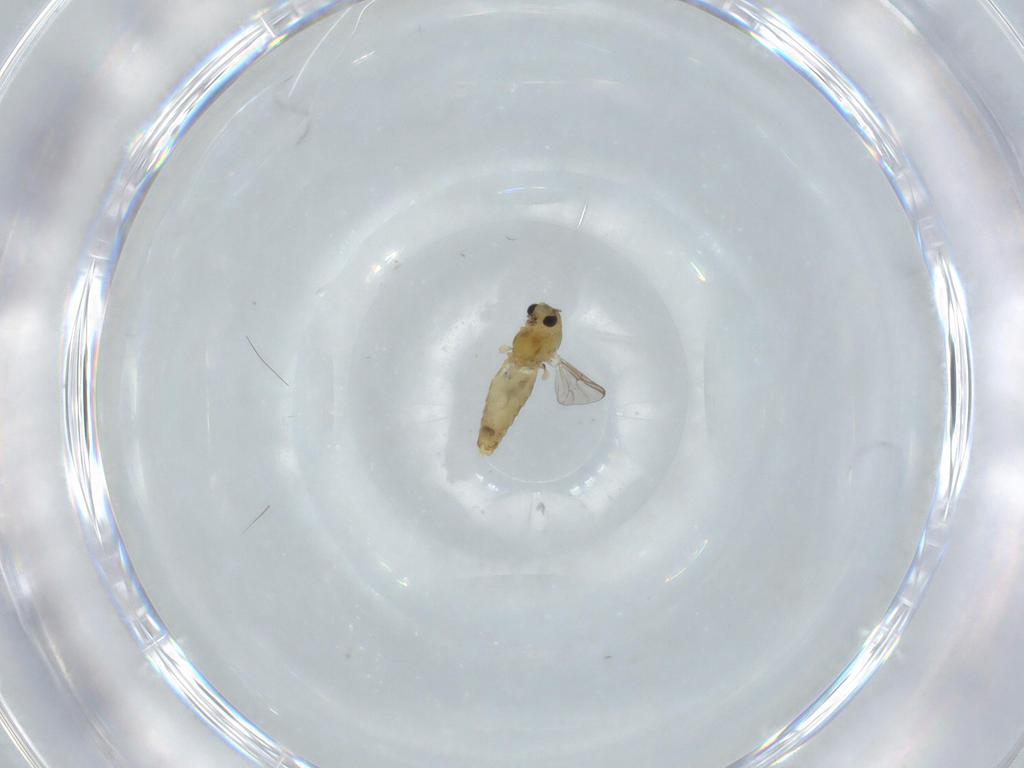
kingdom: Animalia
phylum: Arthropoda
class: Insecta
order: Diptera
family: Chironomidae
